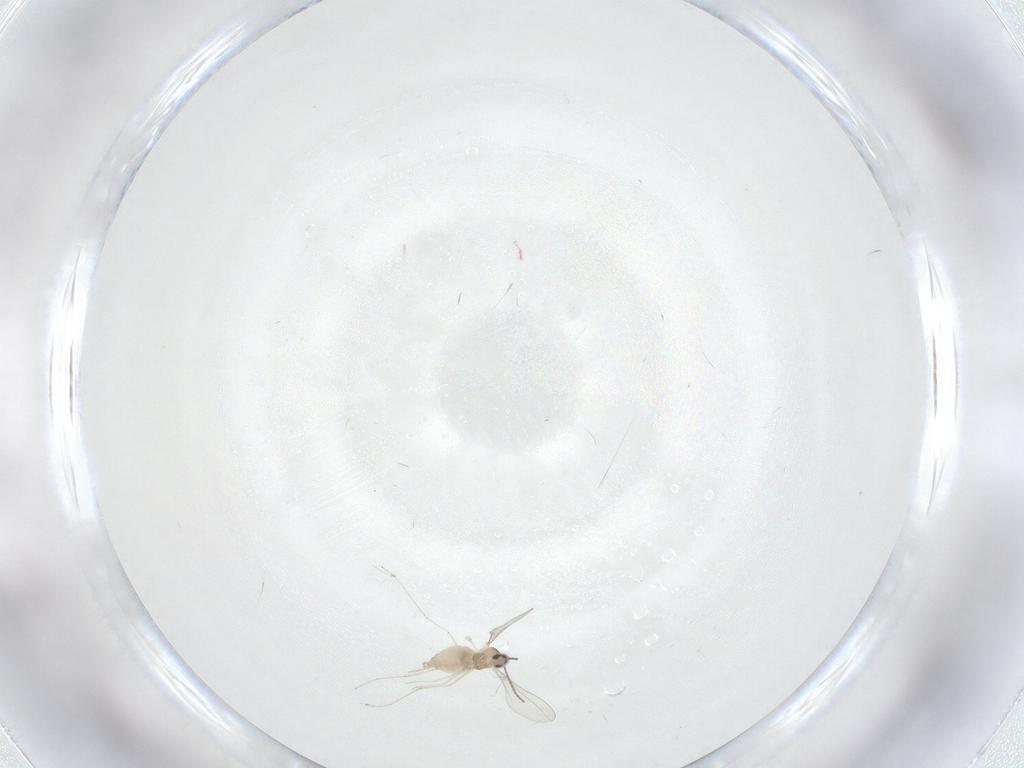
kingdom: Animalia
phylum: Arthropoda
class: Insecta
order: Diptera
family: Cecidomyiidae
